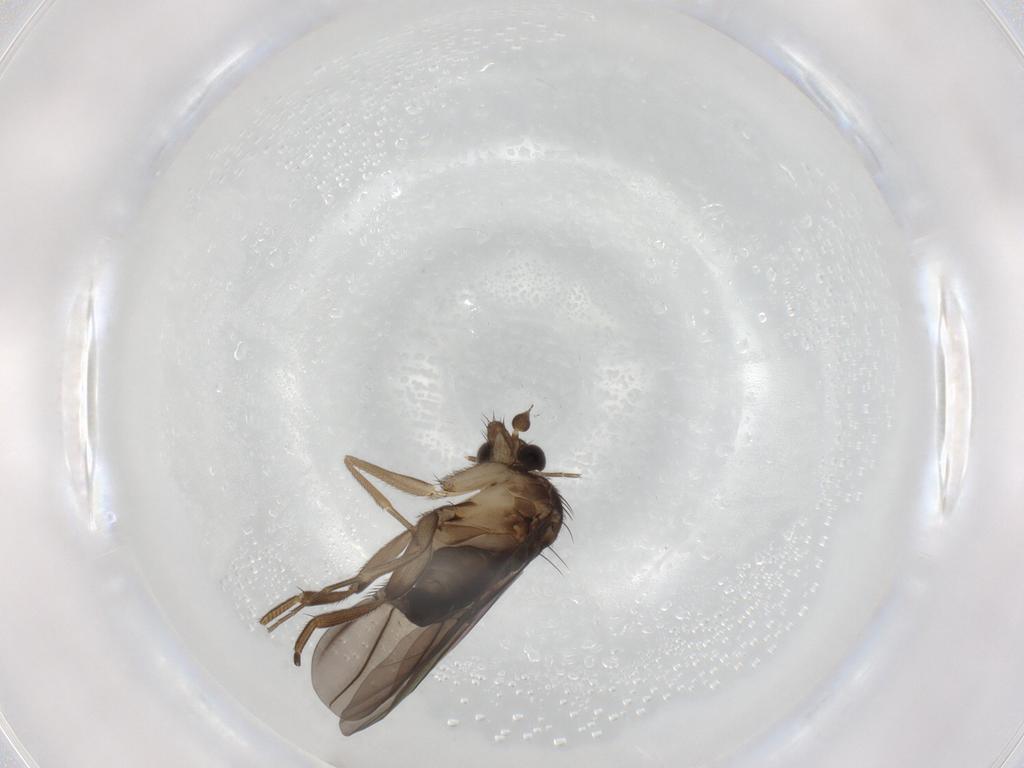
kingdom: Animalia
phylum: Arthropoda
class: Insecta
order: Diptera
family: Phoridae
